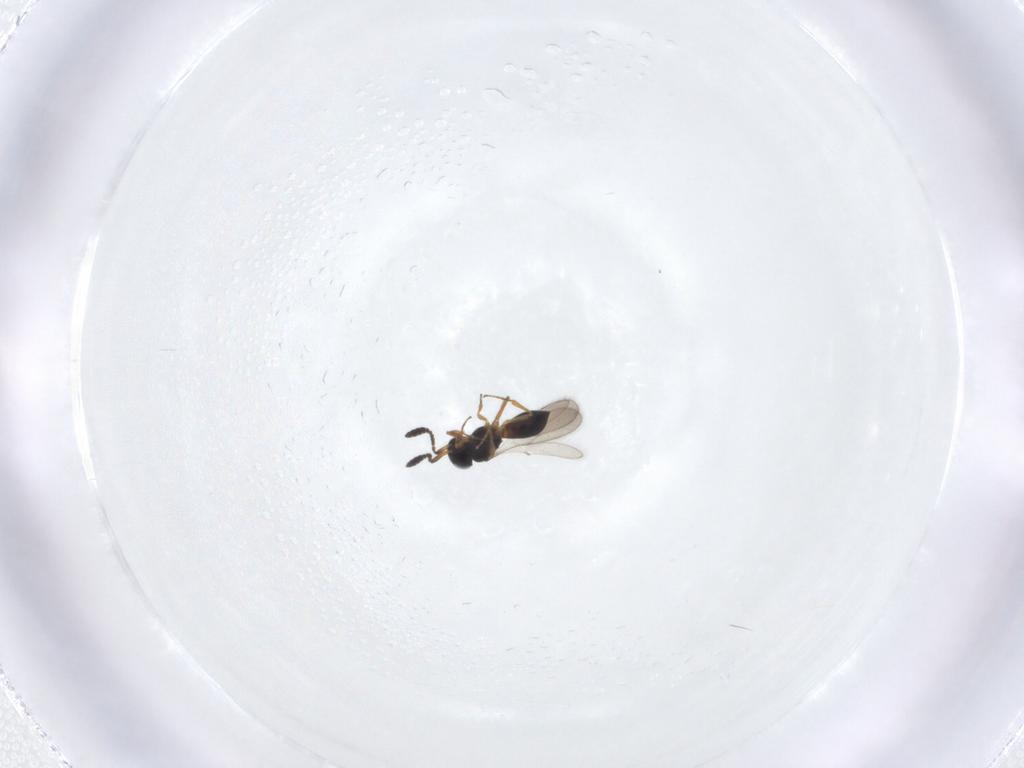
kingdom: Animalia
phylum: Arthropoda
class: Insecta
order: Hymenoptera
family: Scelionidae
